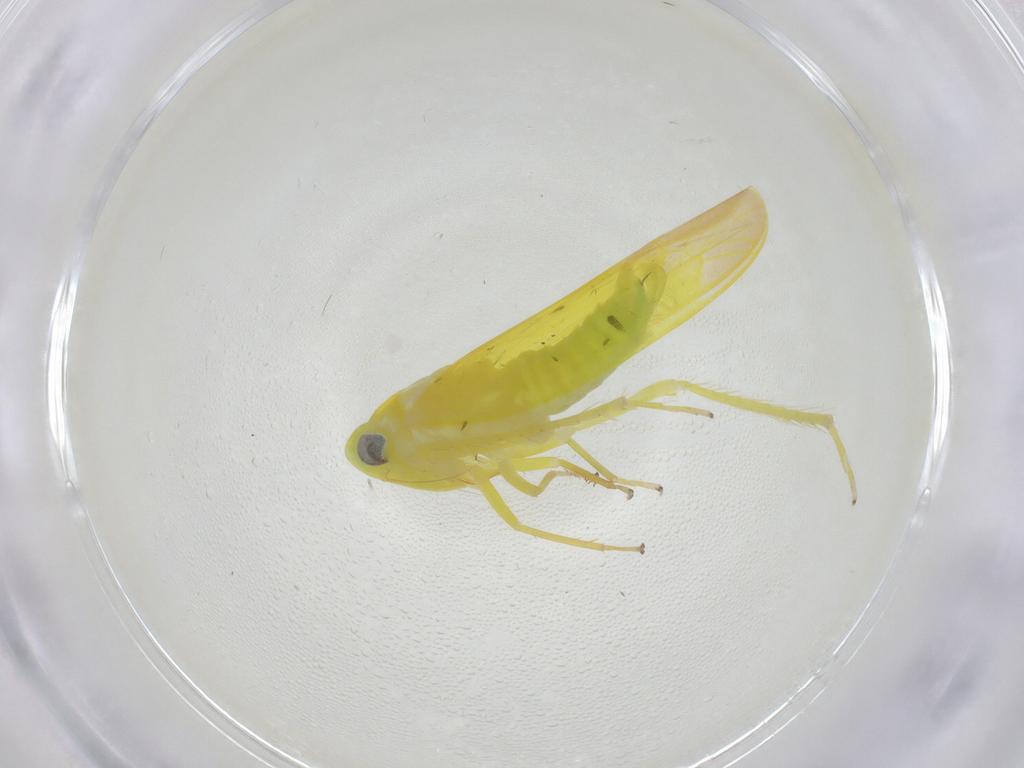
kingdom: Animalia
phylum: Arthropoda
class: Insecta
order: Hemiptera
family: Cicadellidae
